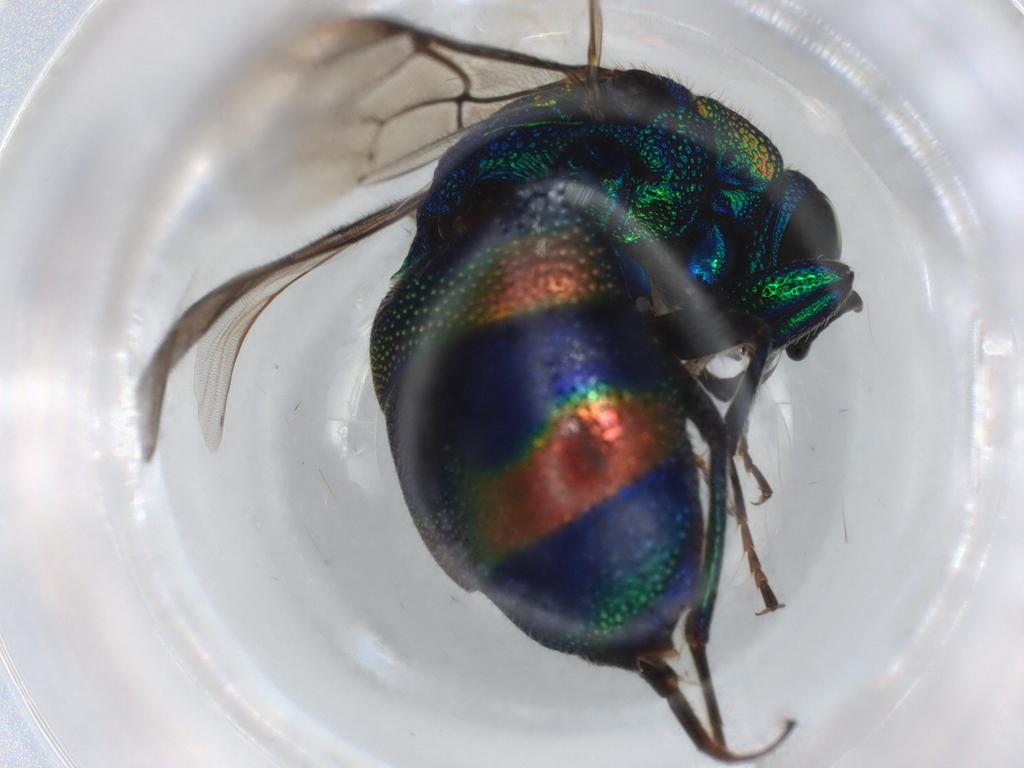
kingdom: Animalia
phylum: Arthropoda
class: Insecta
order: Hymenoptera
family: Chrysididae
